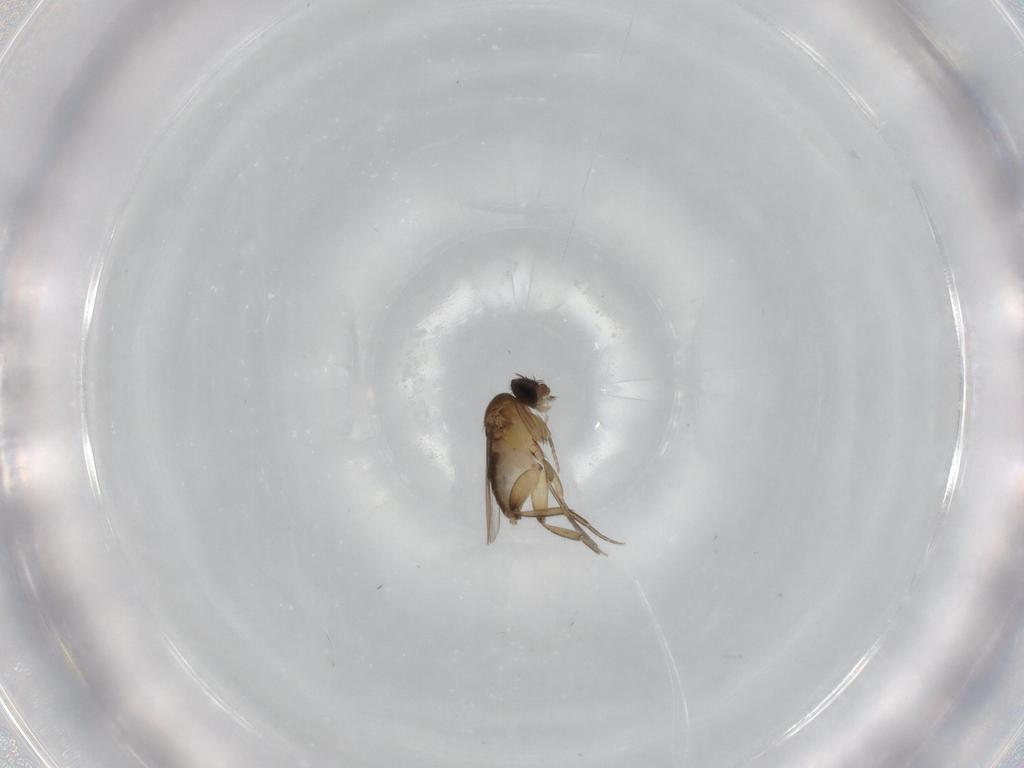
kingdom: Animalia
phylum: Arthropoda
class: Insecta
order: Diptera
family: Phoridae
